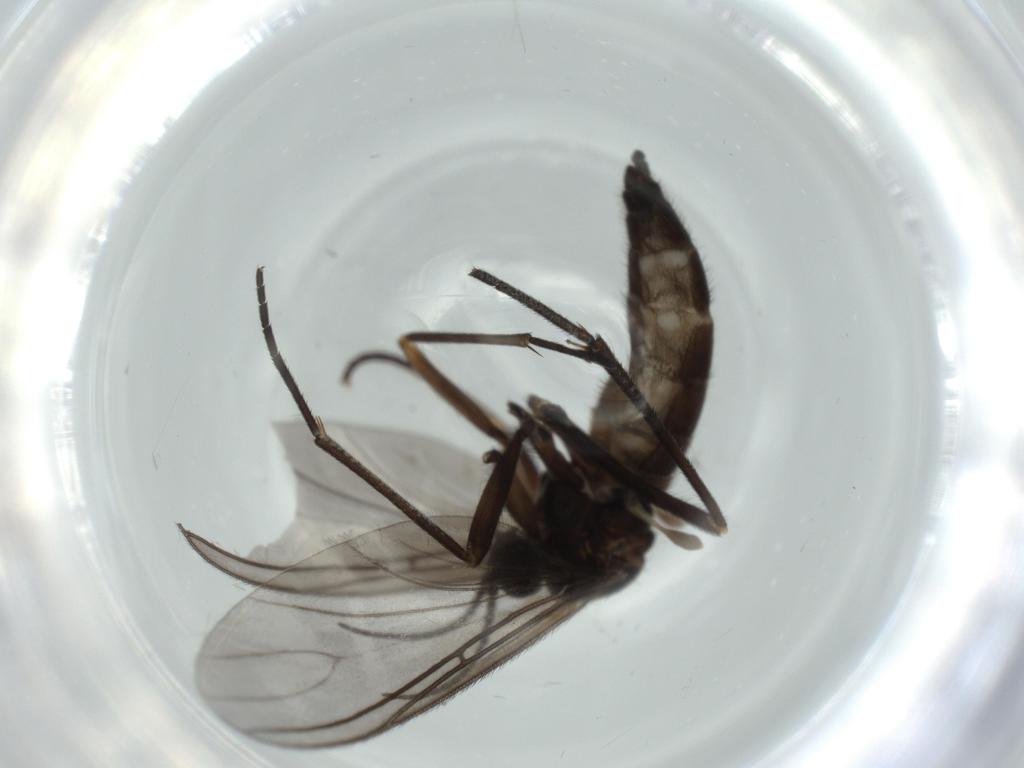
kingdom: Animalia
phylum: Arthropoda
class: Insecta
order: Diptera
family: Sciaridae
